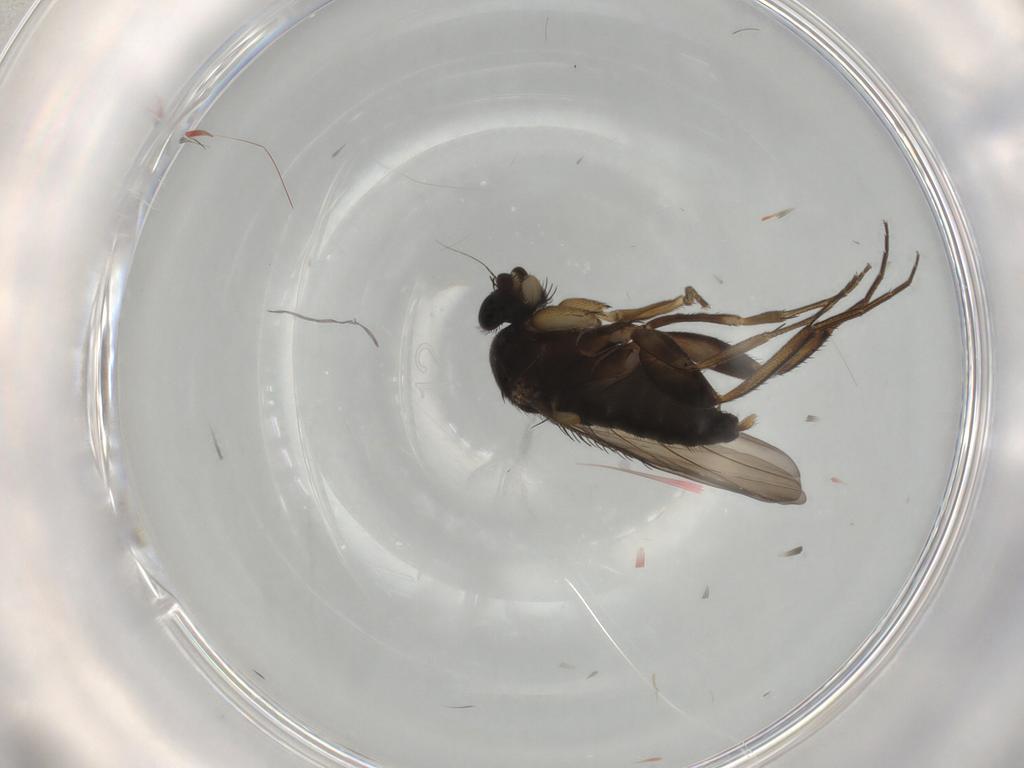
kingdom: Animalia
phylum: Arthropoda
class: Insecta
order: Diptera
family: Phoridae
